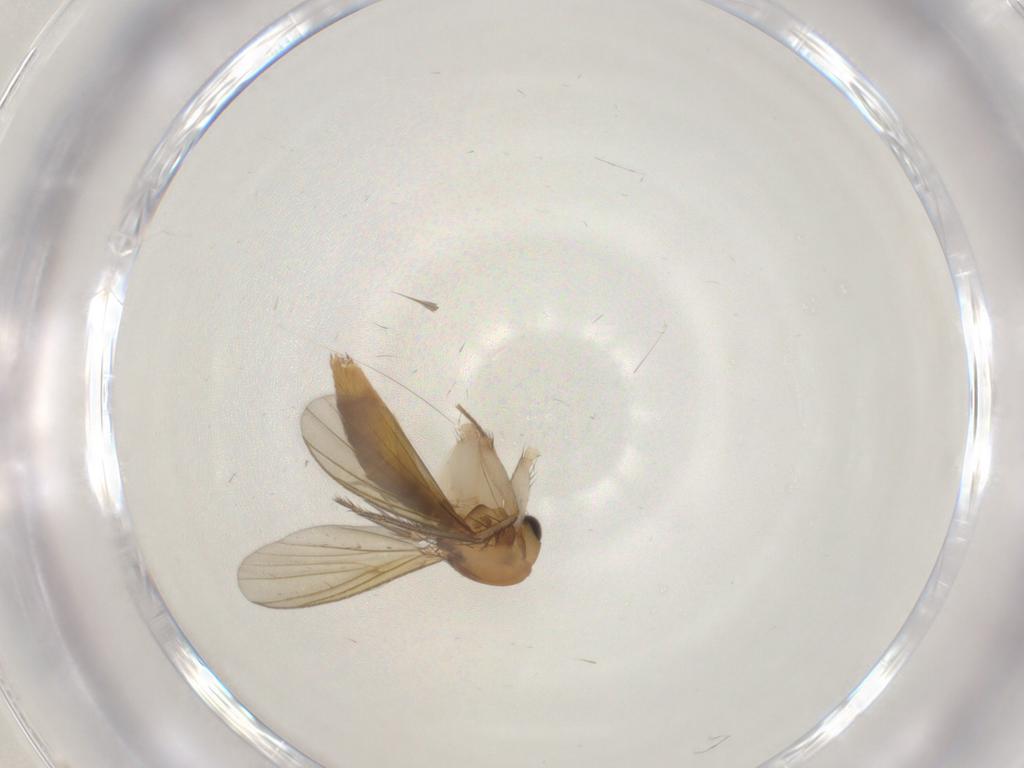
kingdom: Animalia
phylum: Arthropoda
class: Insecta
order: Diptera
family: Phoridae
